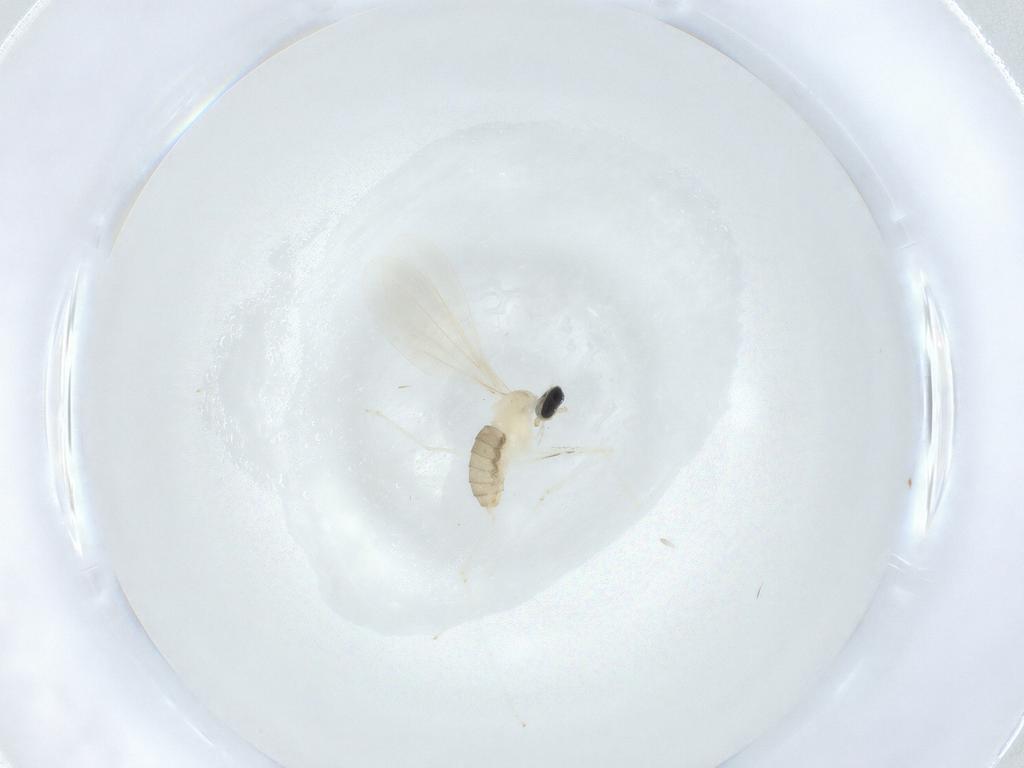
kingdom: Animalia
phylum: Arthropoda
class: Insecta
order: Diptera
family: Cecidomyiidae
